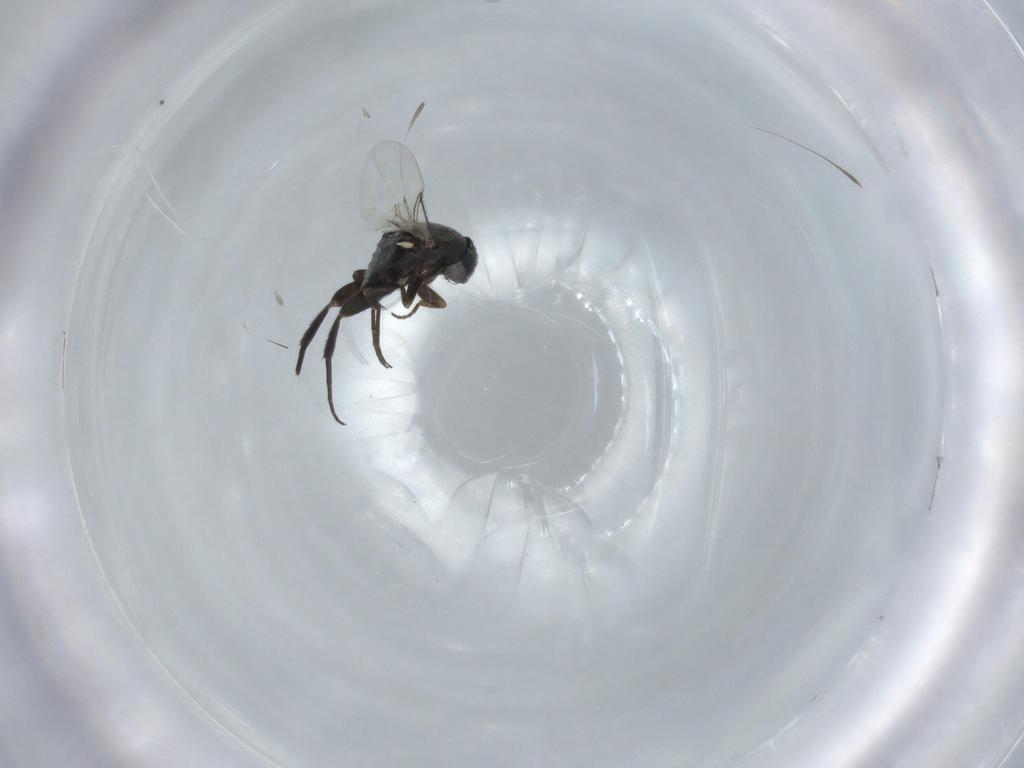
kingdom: Animalia
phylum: Arthropoda
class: Insecta
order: Diptera
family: Phoridae
